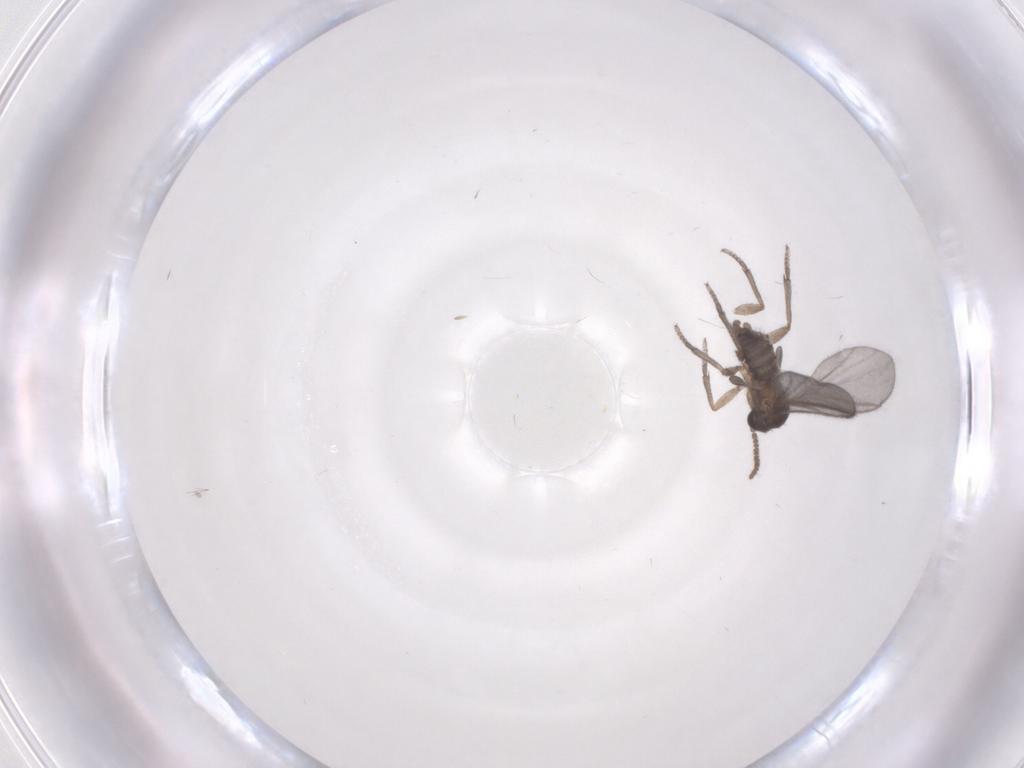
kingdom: Animalia
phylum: Arthropoda
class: Insecta
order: Diptera
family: Sciaridae
